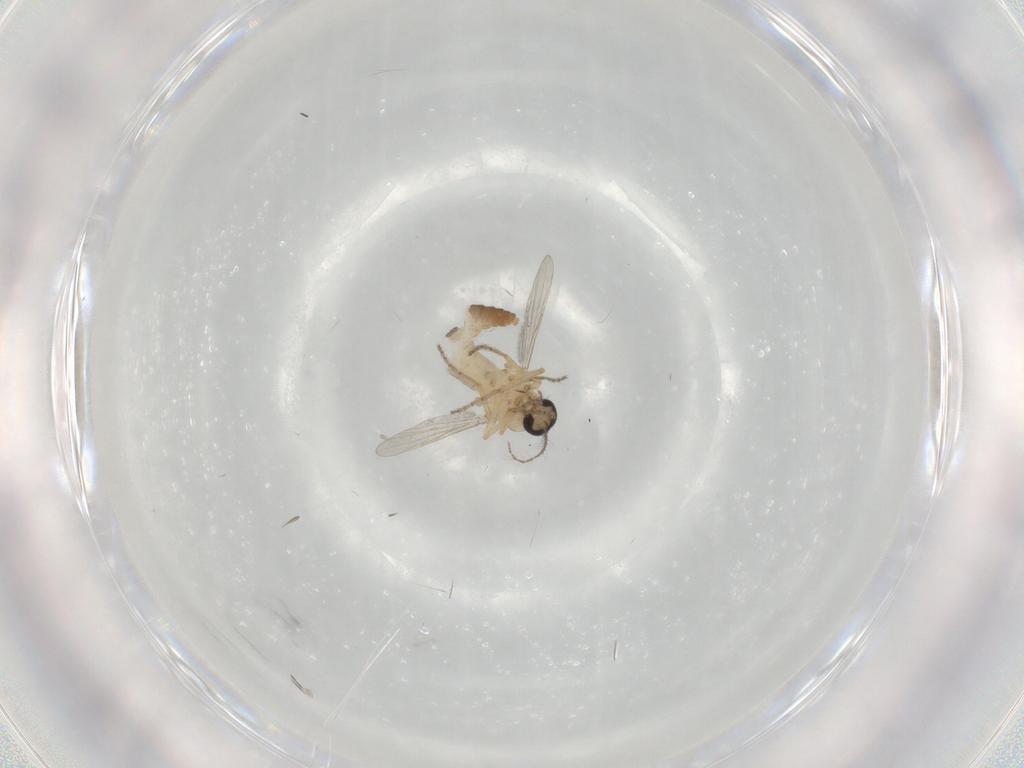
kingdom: Animalia
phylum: Arthropoda
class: Insecta
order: Diptera
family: Ceratopogonidae
